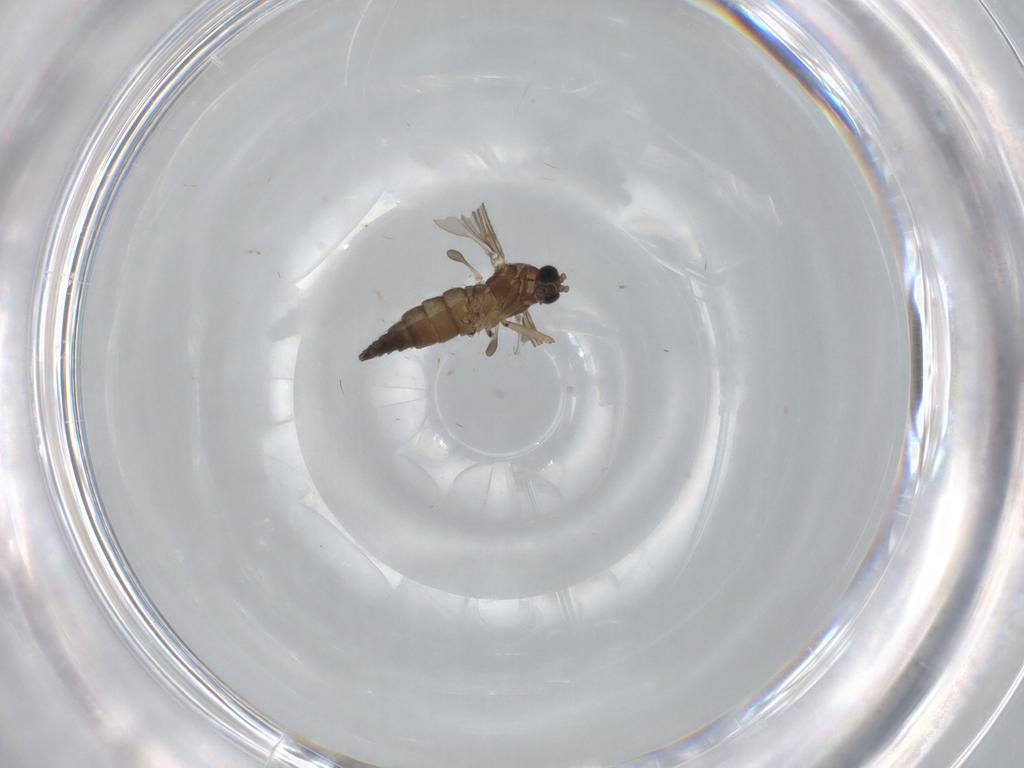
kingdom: Animalia
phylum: Arthropoda
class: Insecta
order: Diptera
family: Sciaridae
